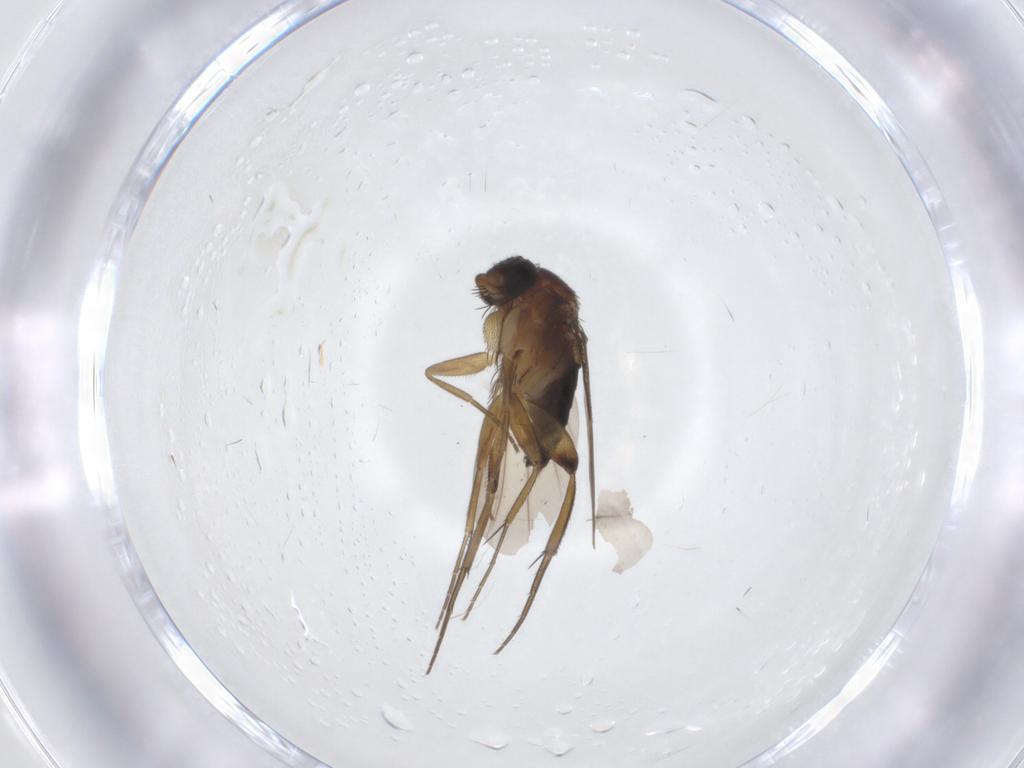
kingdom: Animalia
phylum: Arthropoda
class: Insecta
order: Diptera
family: Phoridae
